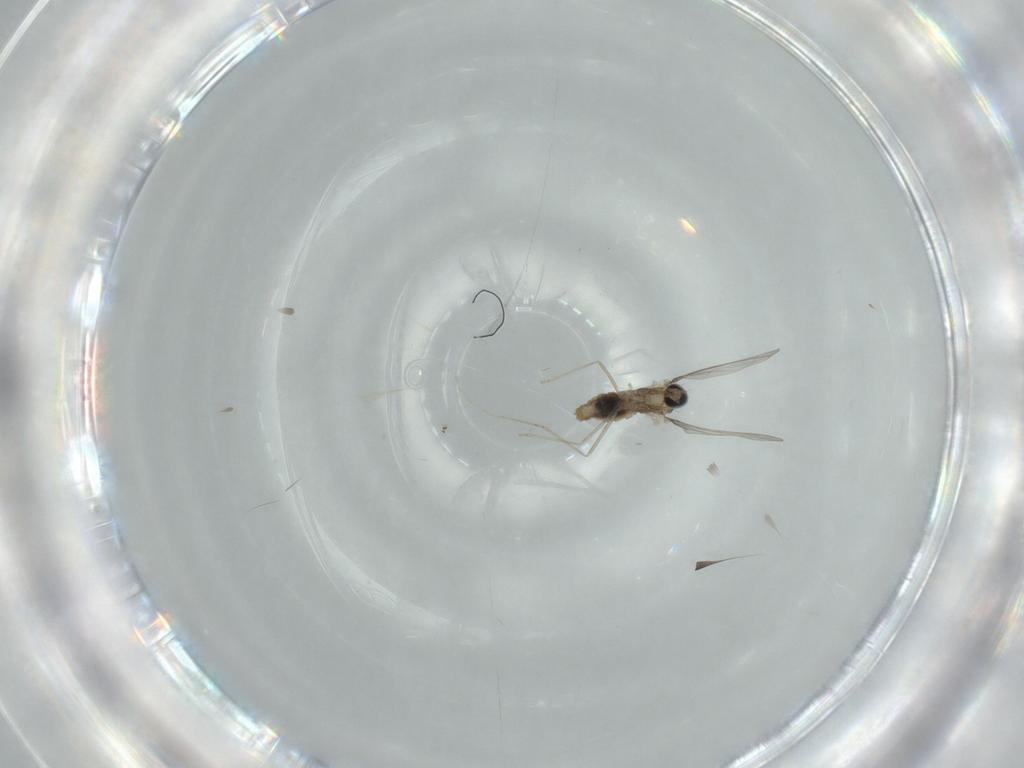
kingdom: Animalia
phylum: Arthropoda
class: Insecta
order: Diptera
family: Cecidomyiidae
